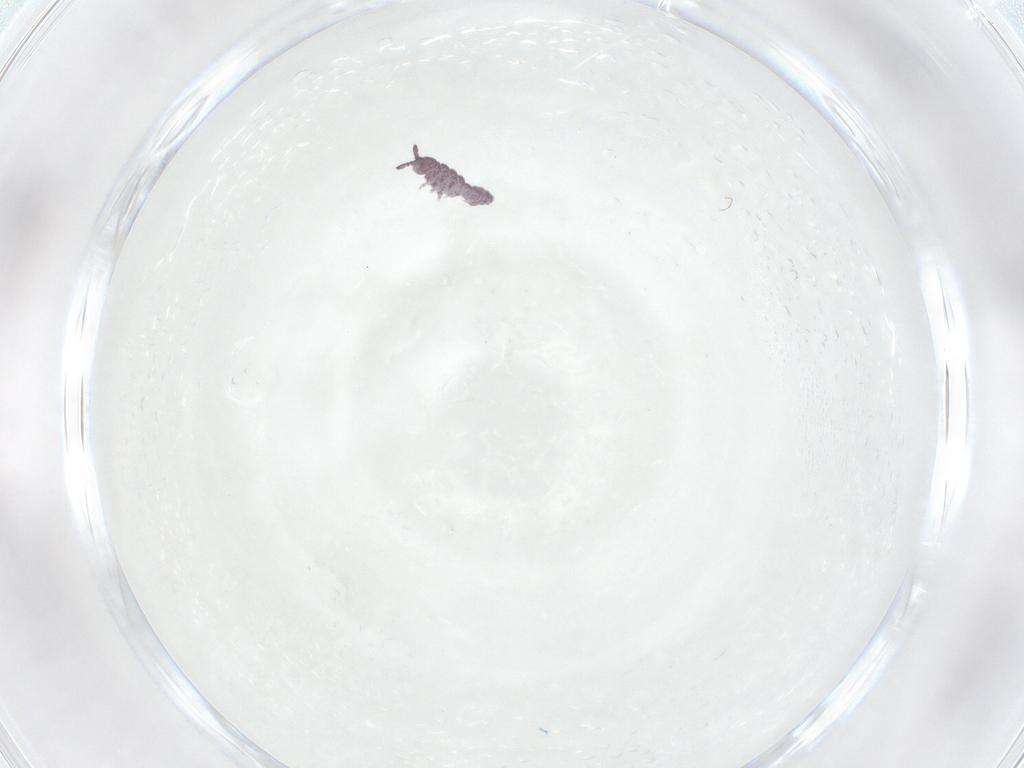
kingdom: Animalia
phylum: Arthropoda
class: Collembola
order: Poduromorpha
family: Hypogastruridae
